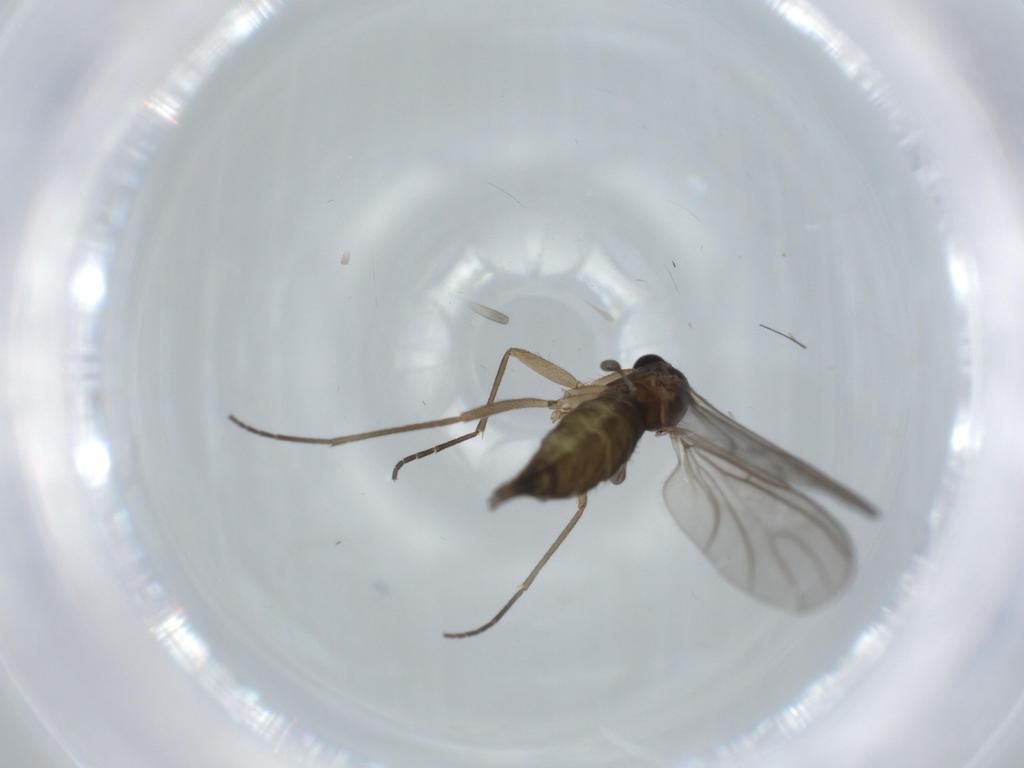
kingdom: Animalia
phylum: Arthropoda
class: Insecta
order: Diptera
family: Sciaridae
